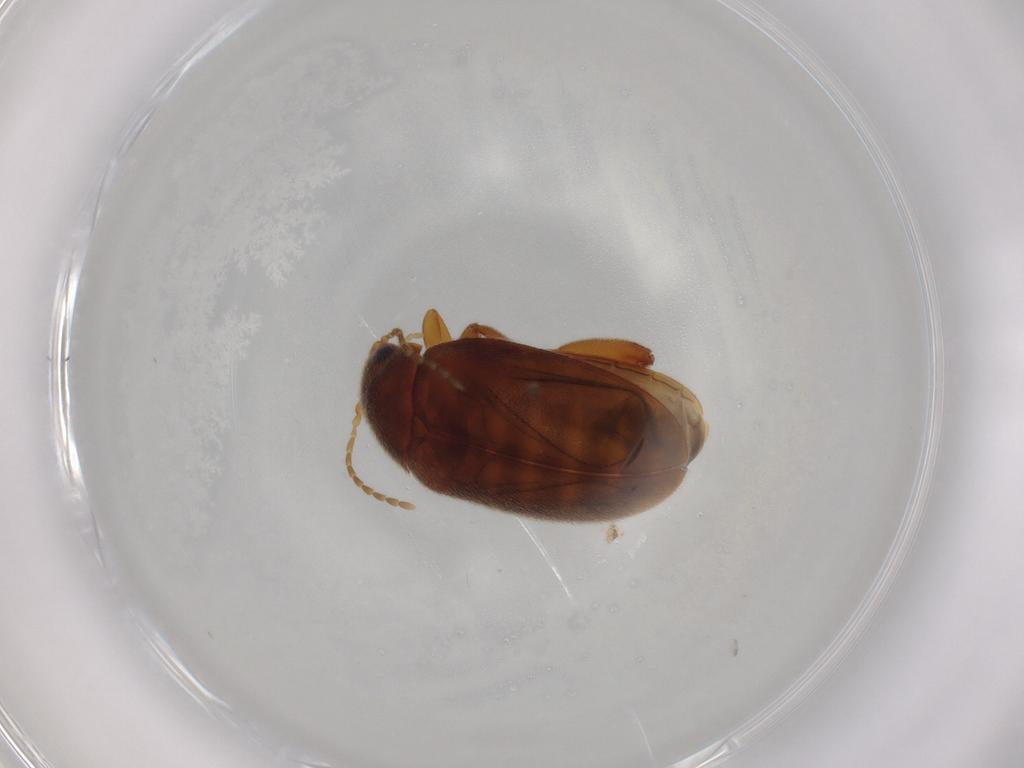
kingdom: Animalia
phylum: Arthropoda
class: Insecta
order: Coleoptera
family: Scirtidae
